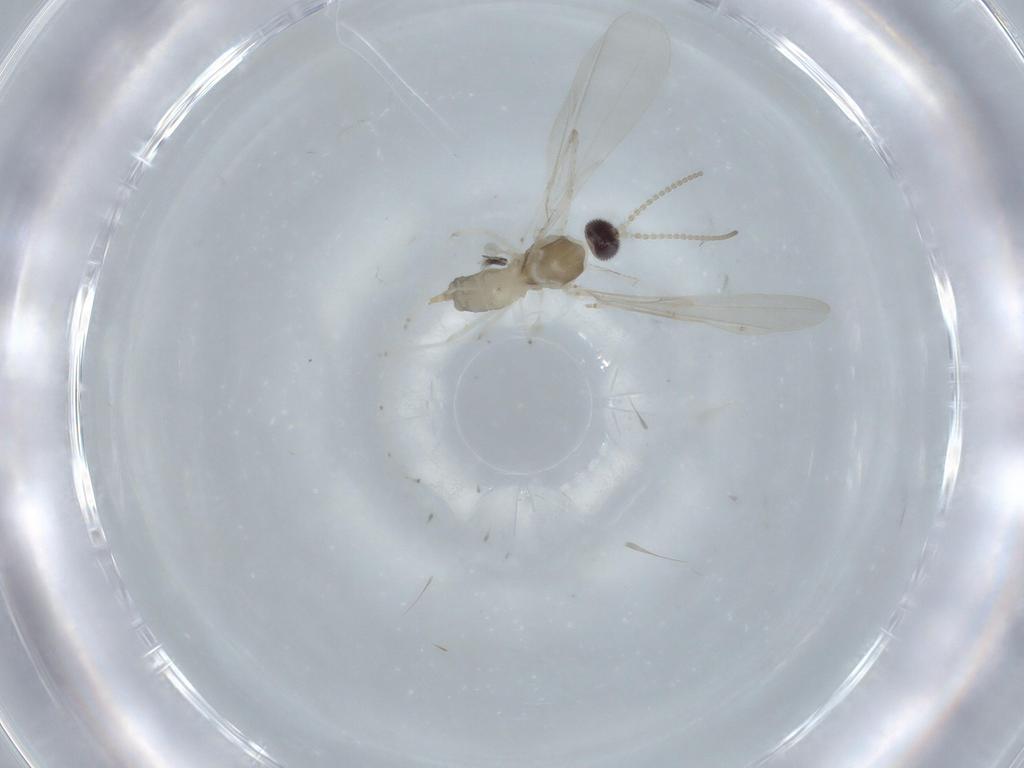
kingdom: Animalia
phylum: Arthropoda
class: Insecta
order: Diptera
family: Cecidomyiidae
